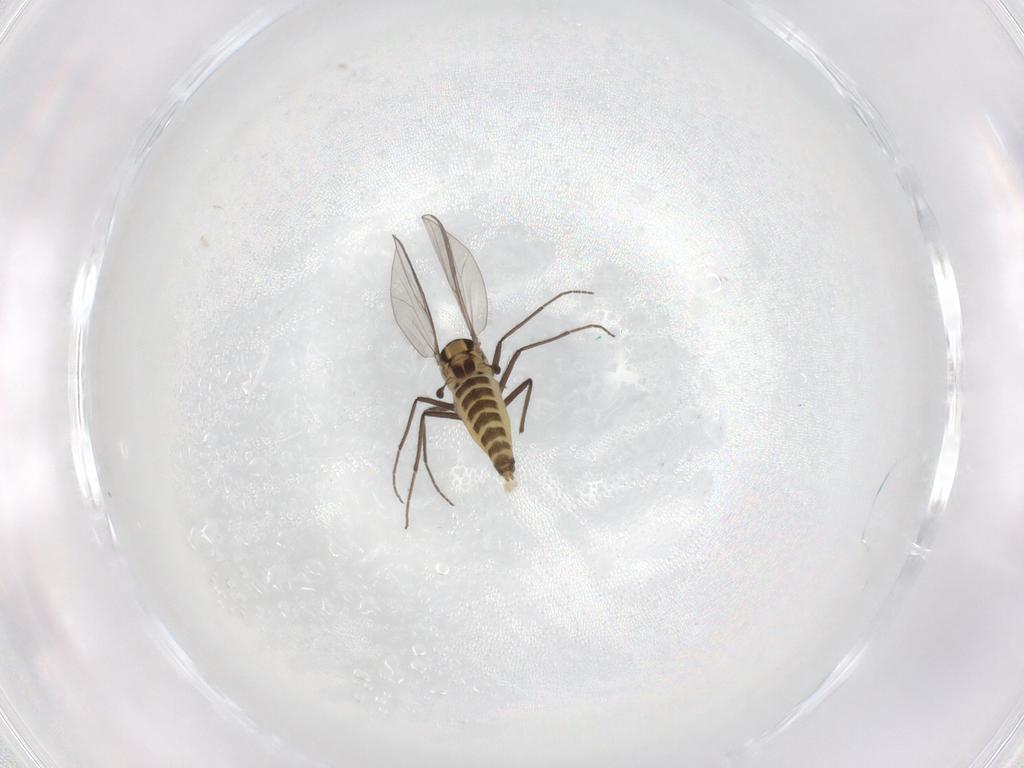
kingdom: Animalia
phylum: Arthropoda
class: Insecta
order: Diptera
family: Chironomidae
